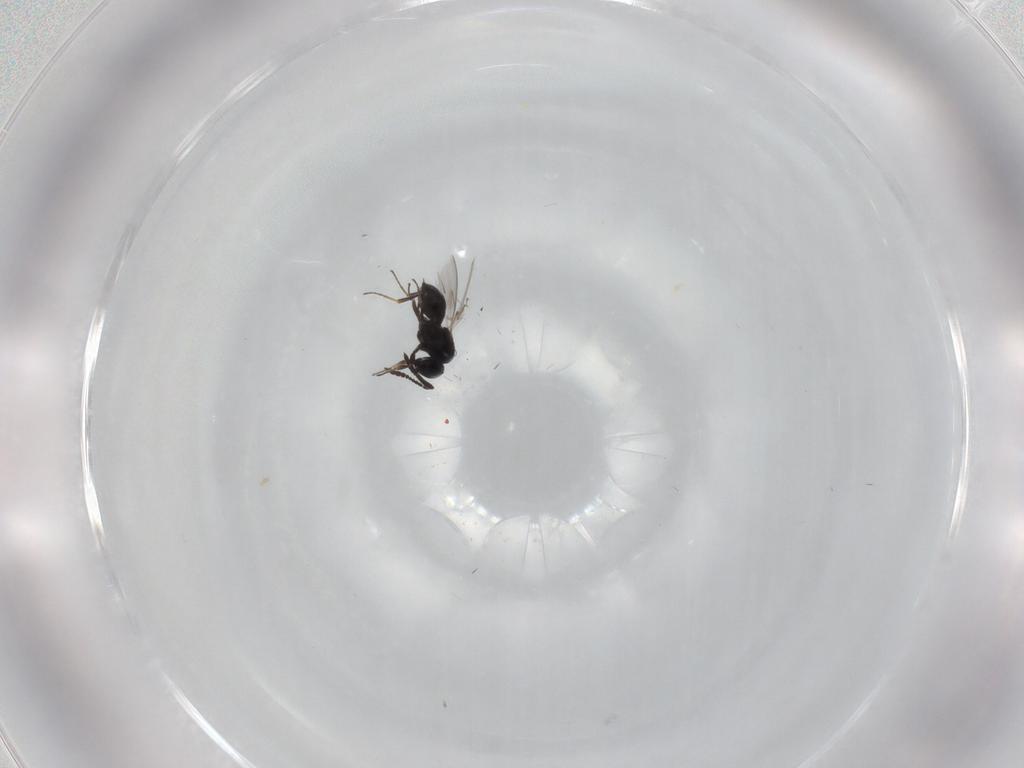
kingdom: Animalia
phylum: Arthropoda
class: Insecta
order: Hymenoptera
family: Scelionidae
